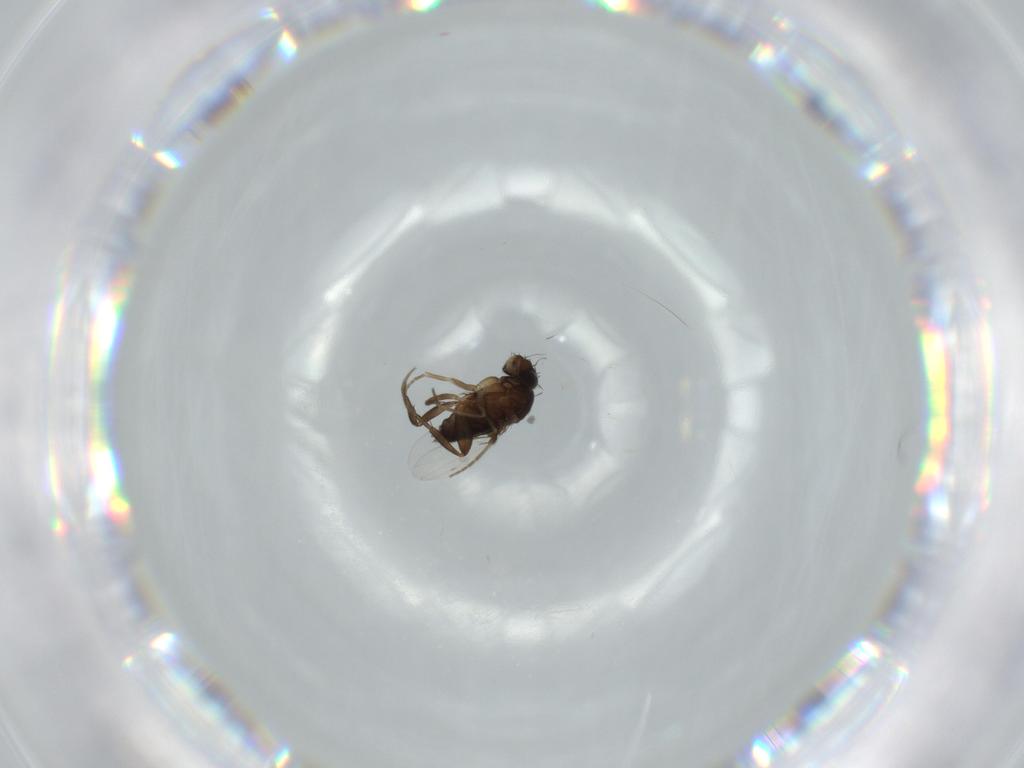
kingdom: Animalia
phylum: Arthropoda
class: Insecta
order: Diptera
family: Phoridae
